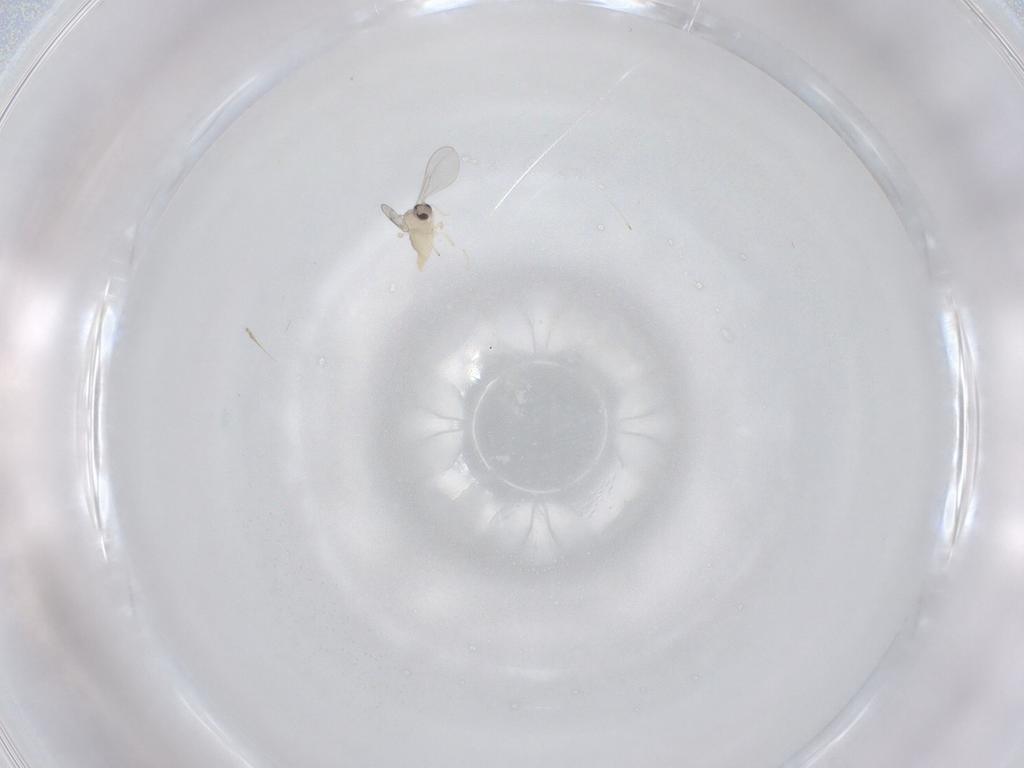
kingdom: Animalia
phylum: Arthropoda
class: Insecta
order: Diptera
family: Cecidomyiidae
